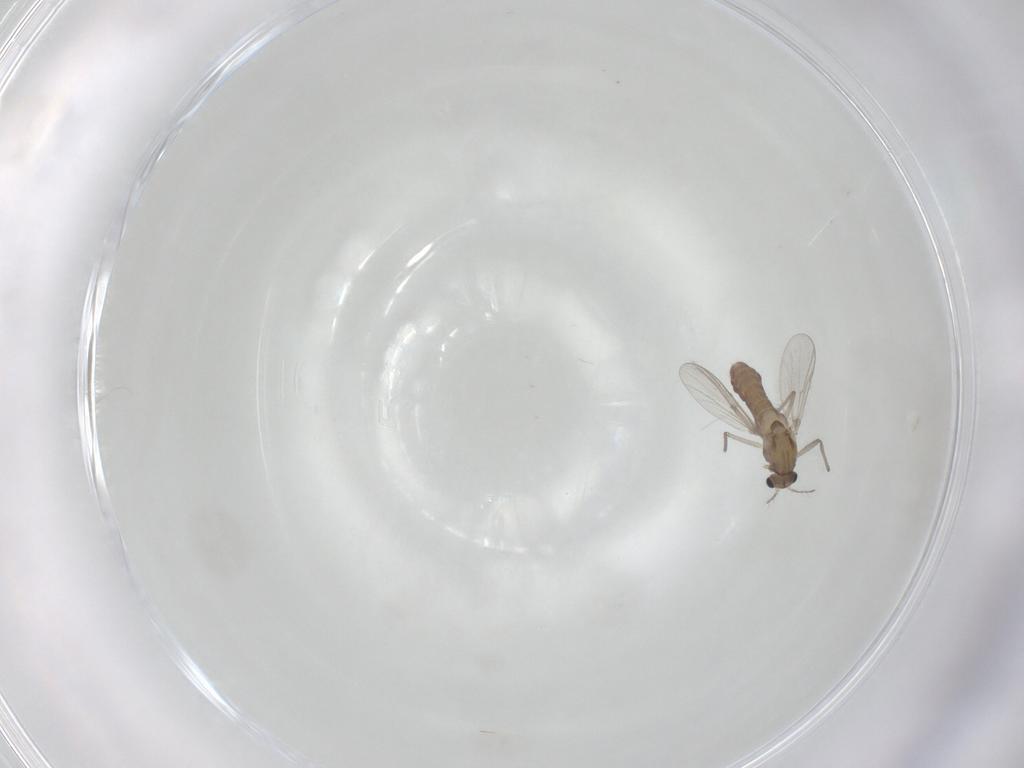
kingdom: Animalia
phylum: Arthropoda
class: Insecta
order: Diptera
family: Chironomidae
